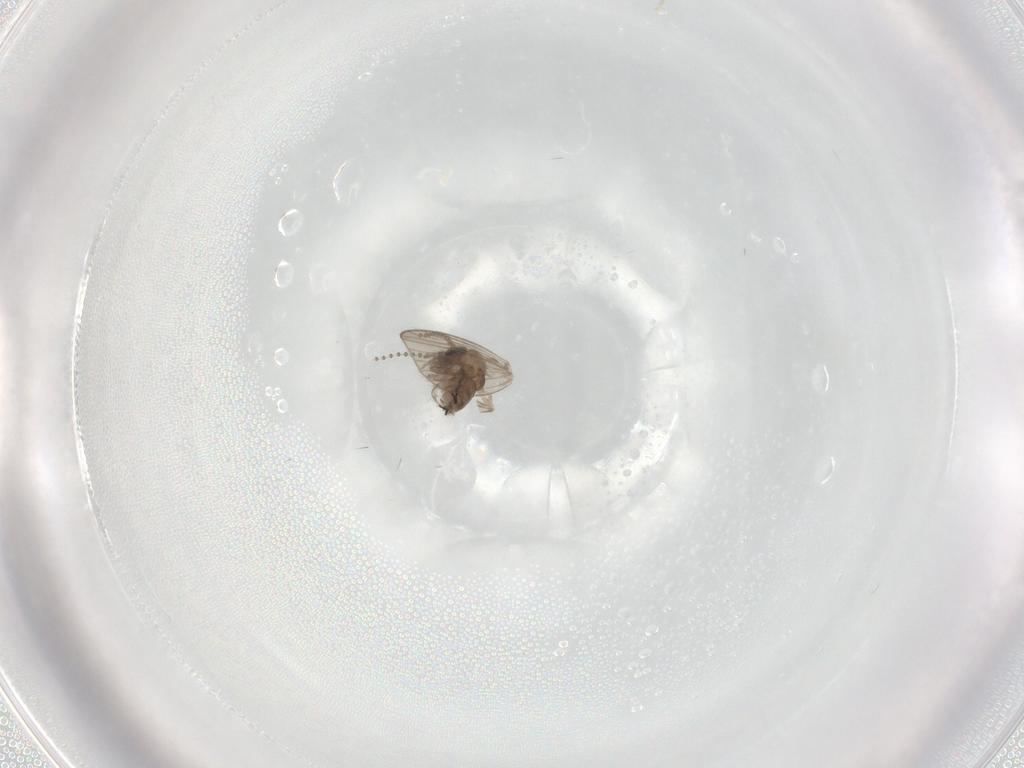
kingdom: Animalia
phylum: Arthropoda
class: Insecta
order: Diptera
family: Psychodidae
